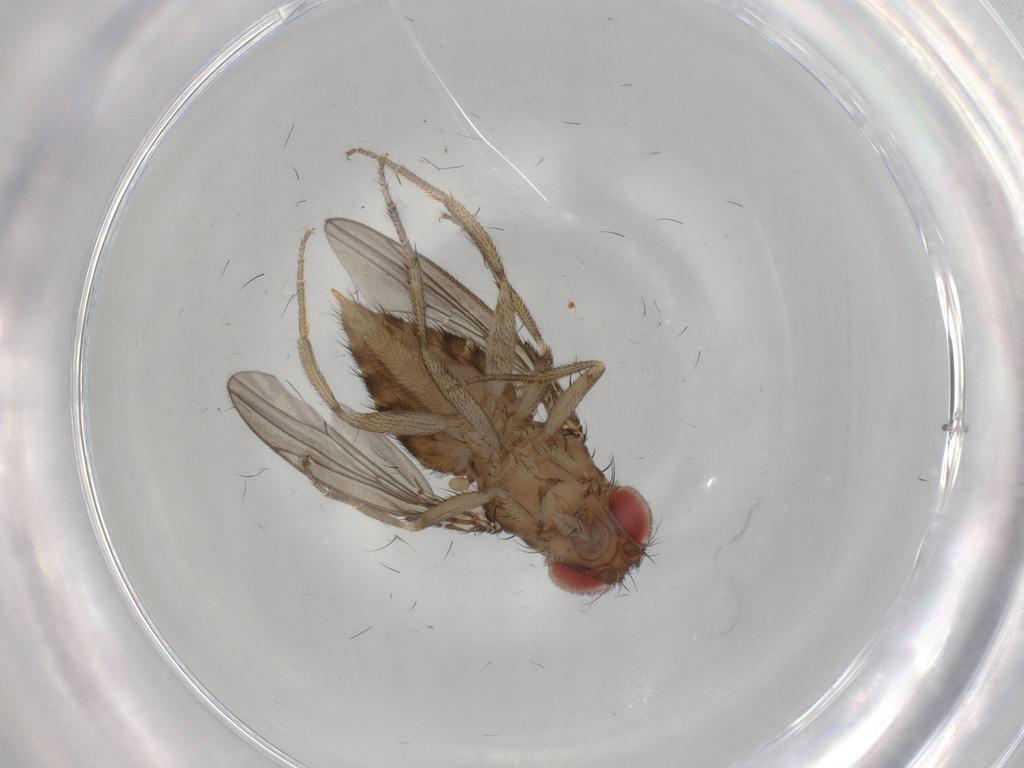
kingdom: Animalia
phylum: Arthropoda
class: Insecta
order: Diptera
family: Drosophilidae
